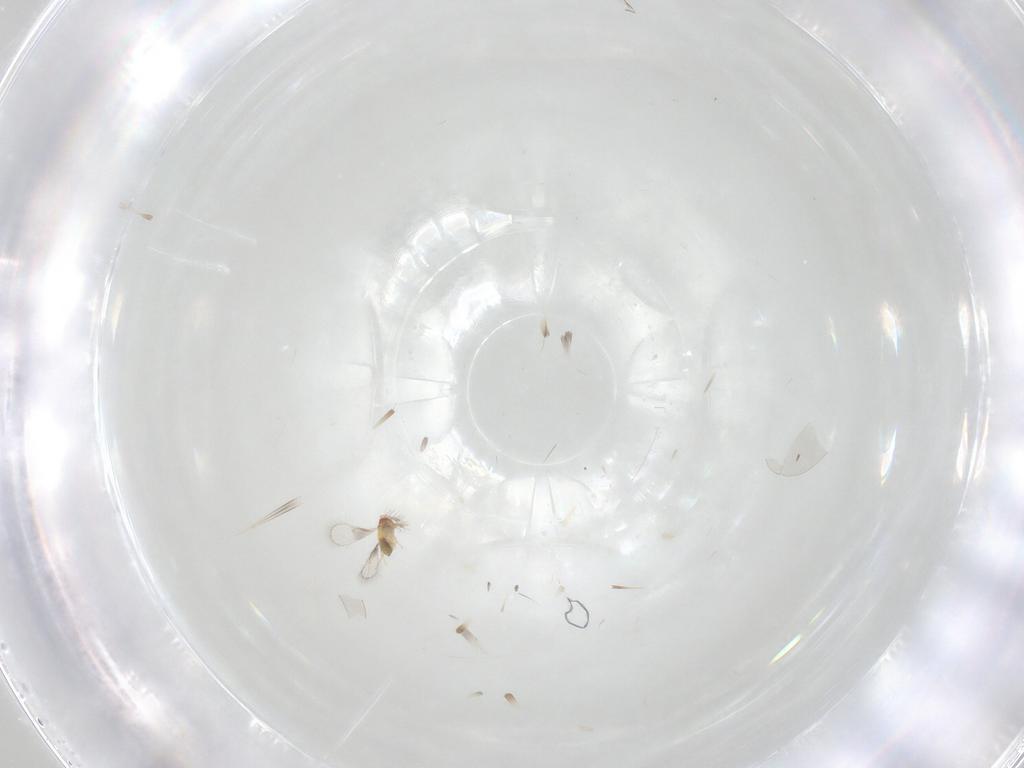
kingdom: Animalia
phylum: Arthropoda
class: Insecta
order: Hymenoptera
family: Trichogrammatidae
